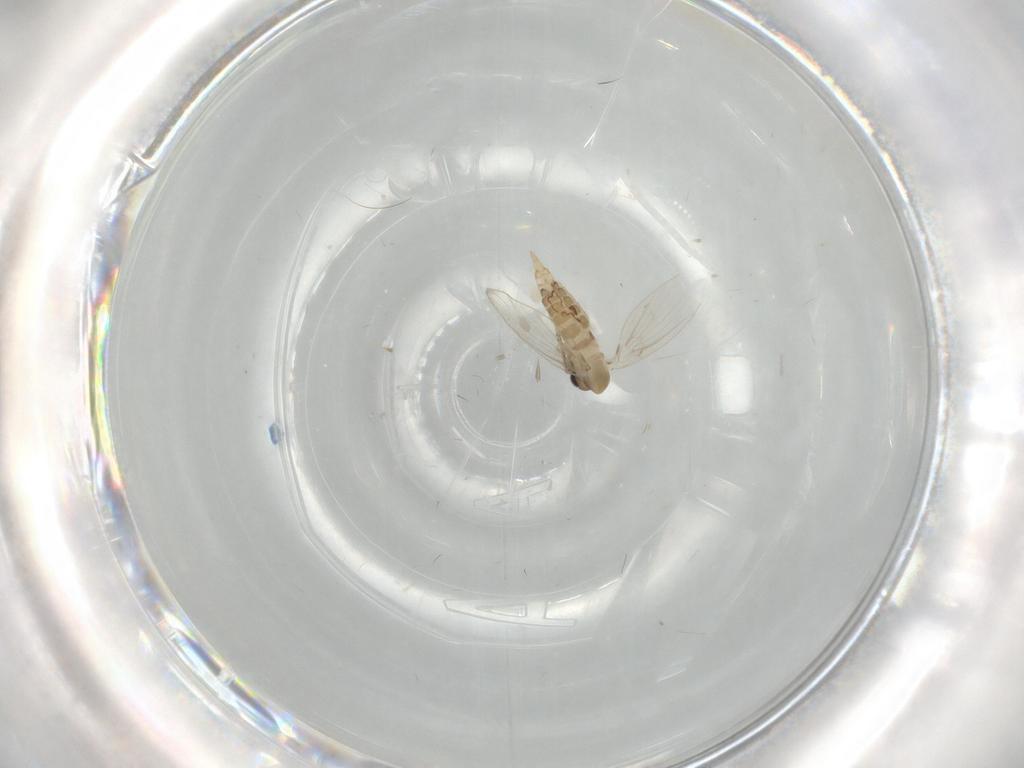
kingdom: Animalia
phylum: Arthropoda
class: Insecta
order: Diptera
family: Psychodidae
